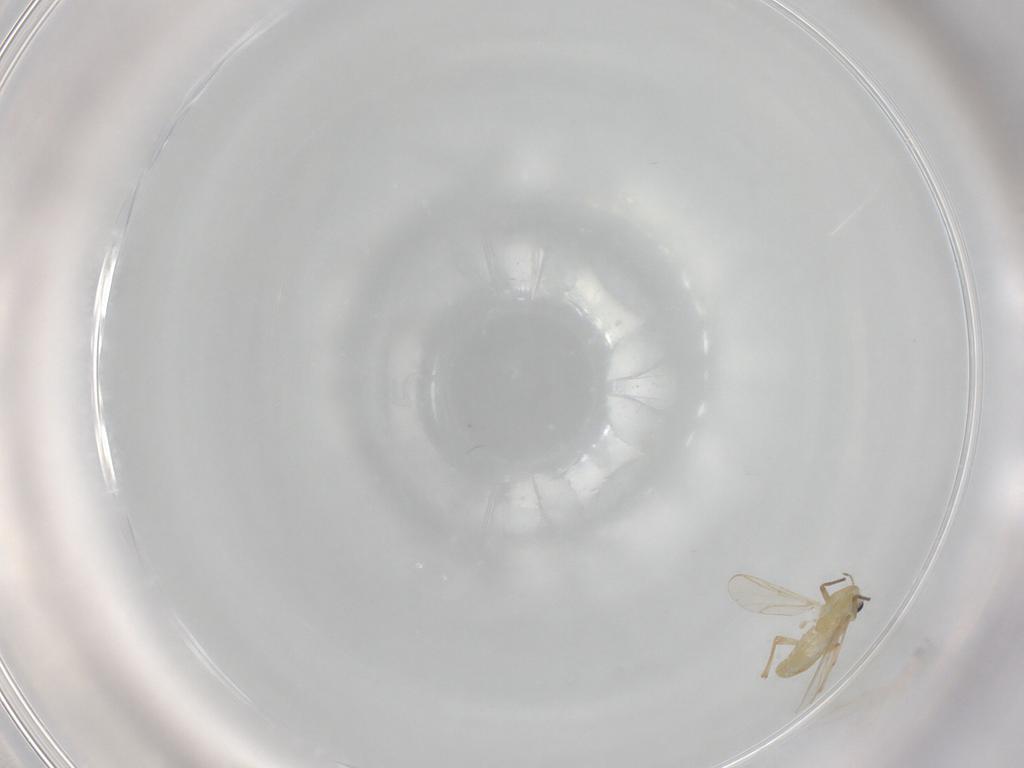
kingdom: Animalia
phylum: Arthropoda
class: Insecta
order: Diptera
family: Chironomidae
